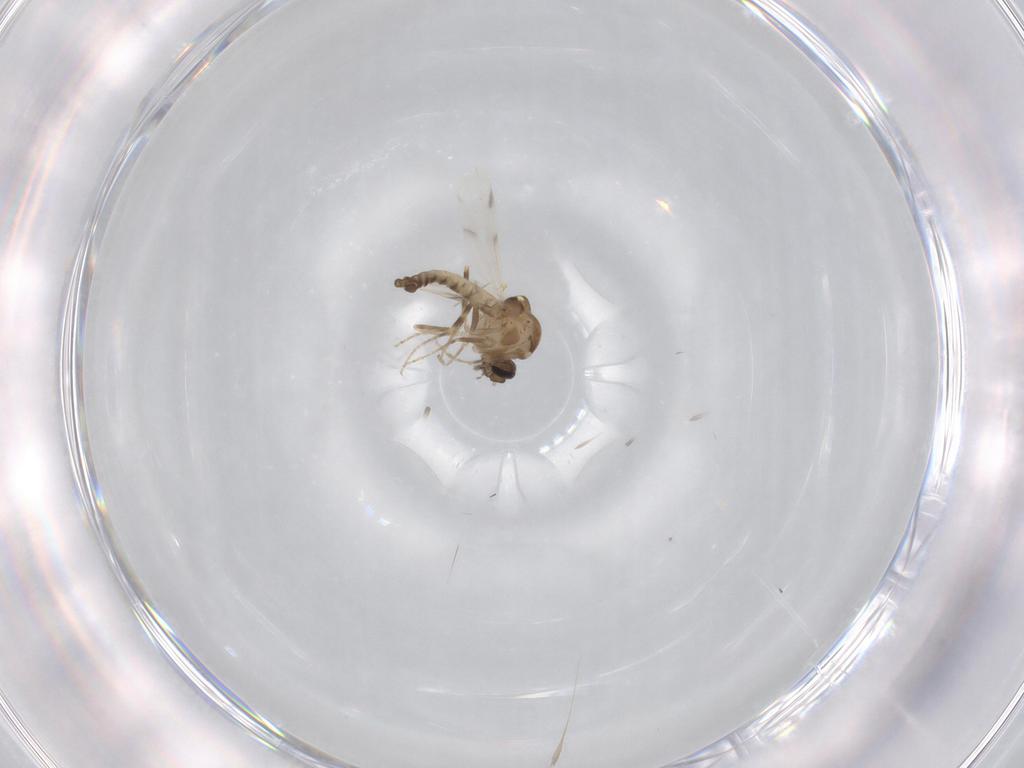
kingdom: Animalia
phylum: Arthropoda
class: Insecta
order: Diptera
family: Ceratopogonidae
